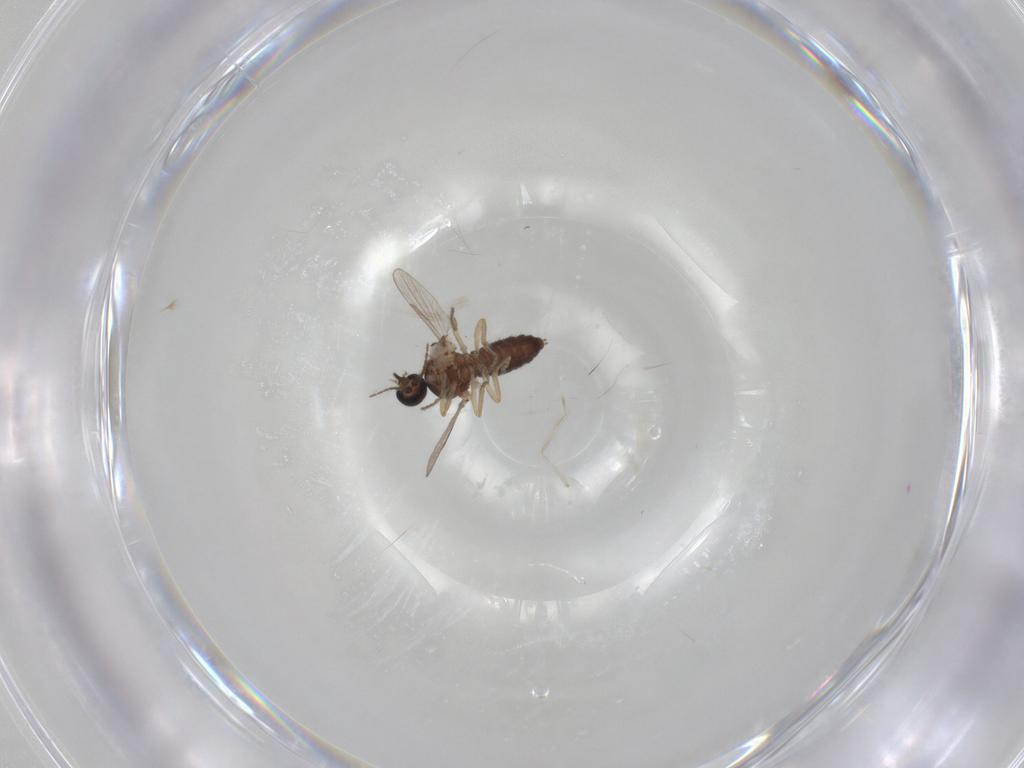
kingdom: Animalia
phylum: Arthropoda
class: Insecta
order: Diptera
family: Ceratopogonidae
